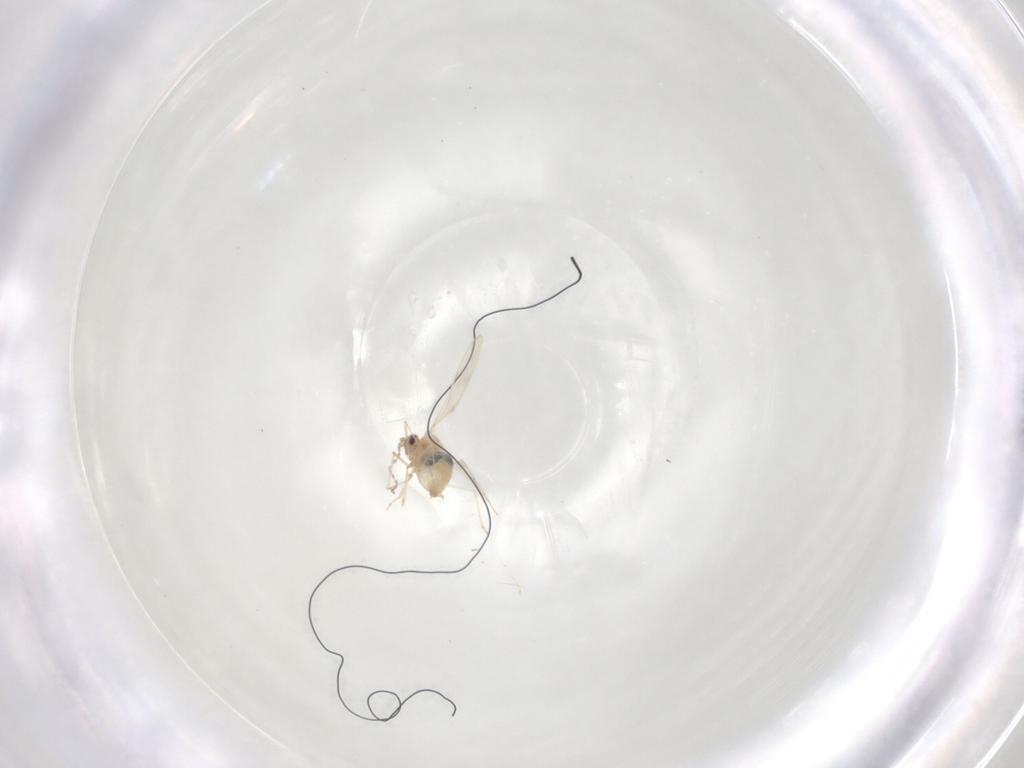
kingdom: Animalia
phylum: Arthropoda
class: Insecta
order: Diptera
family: Cecidomyiidae
